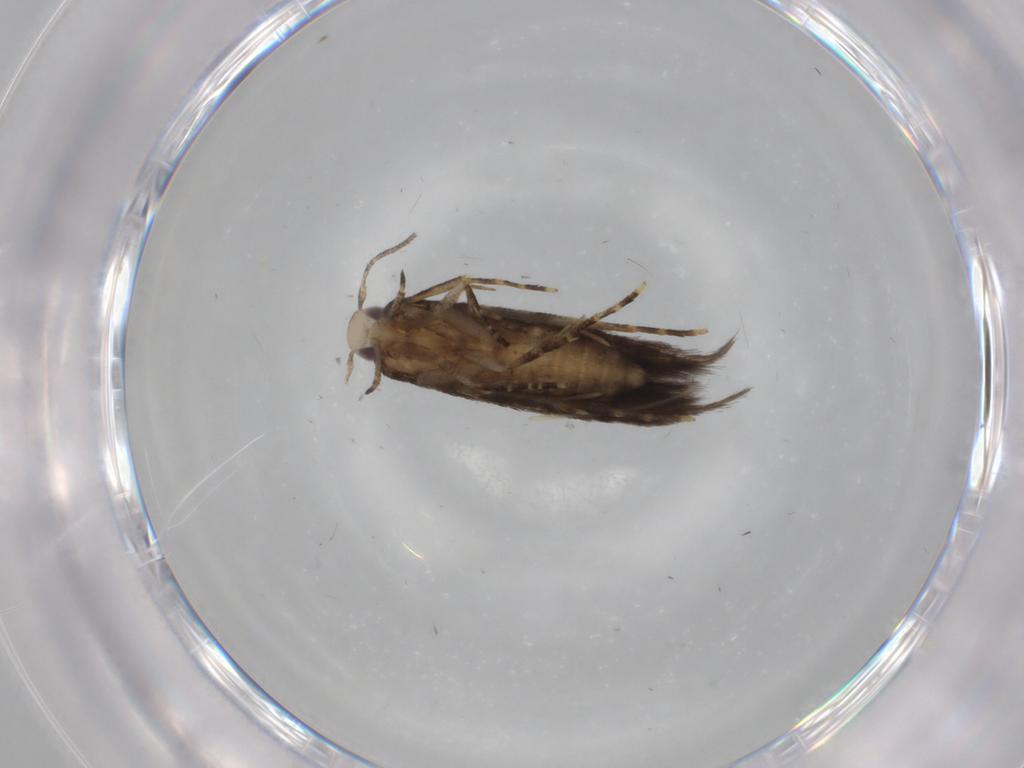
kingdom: Animalia
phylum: Arthropoda
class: Insecta
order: Lepidoptera
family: Cosmopterigidae
